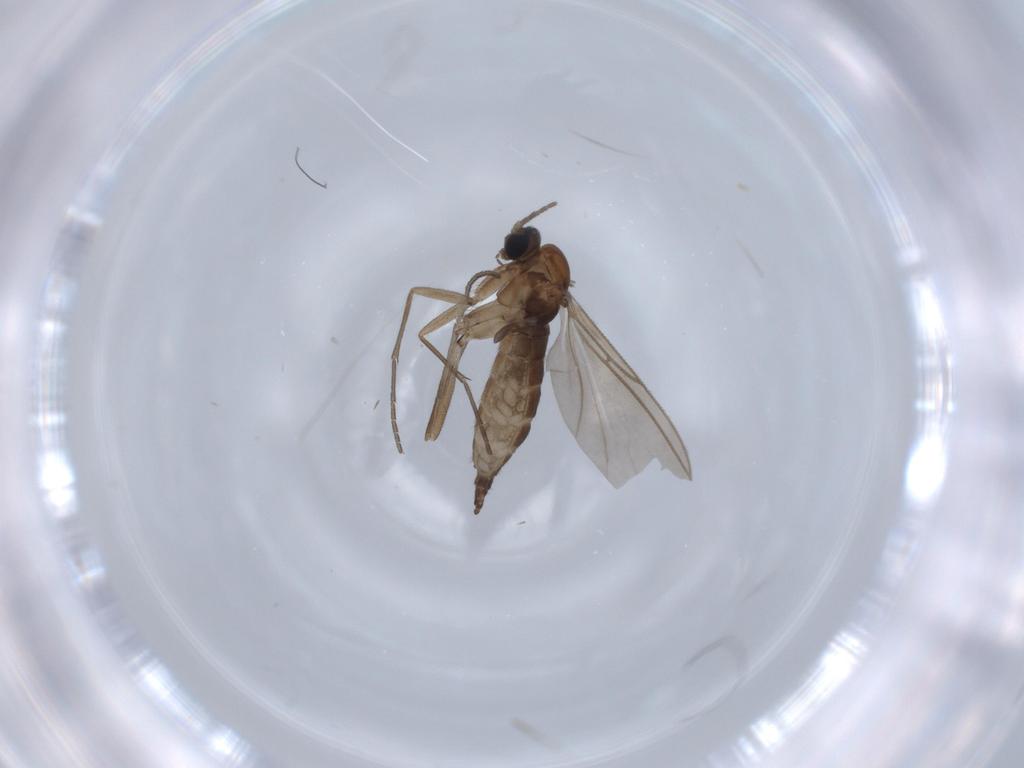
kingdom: Animalia
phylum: Arthropoda
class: Insecta
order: Diptera
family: Sciaridae
